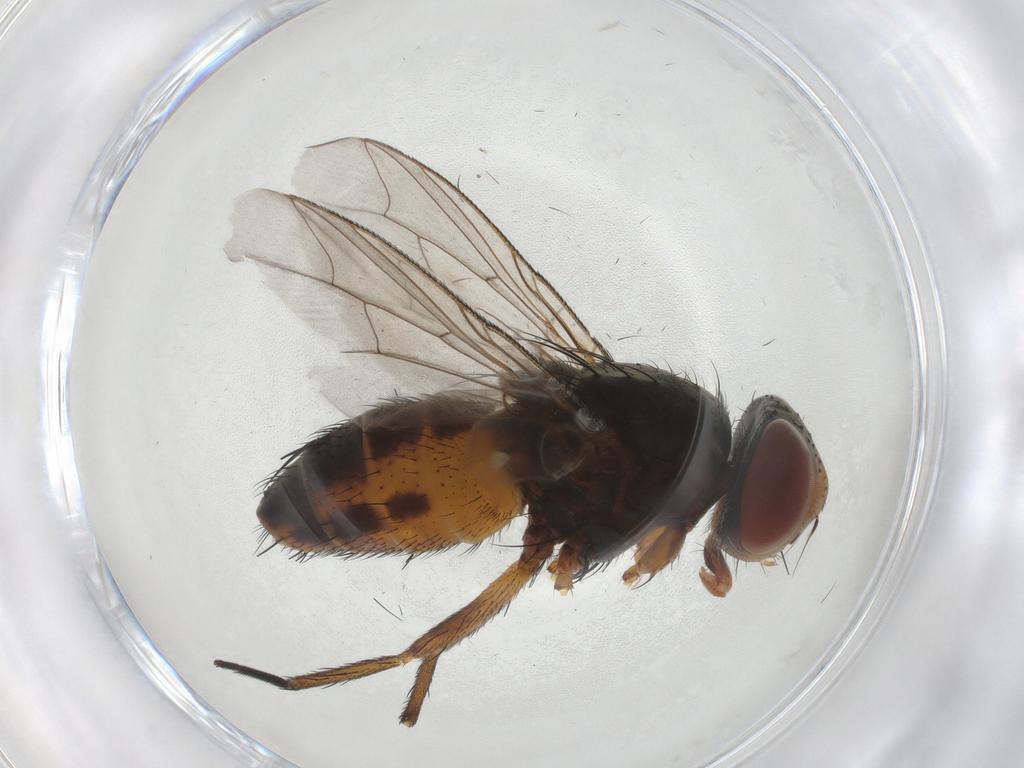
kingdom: Animalia
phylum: Arthropoda
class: Insecta
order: Diptera
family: Sarcophagidae
